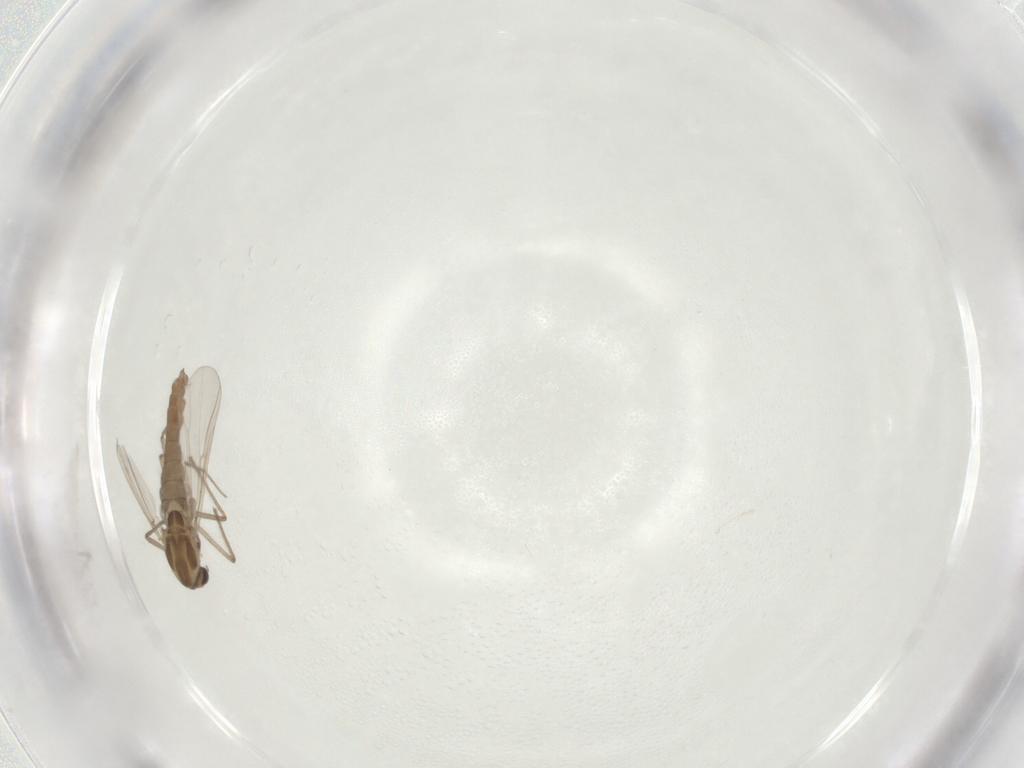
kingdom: Animalia
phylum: Arthropoda
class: Insecta
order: Diptera
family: Chironomidae
